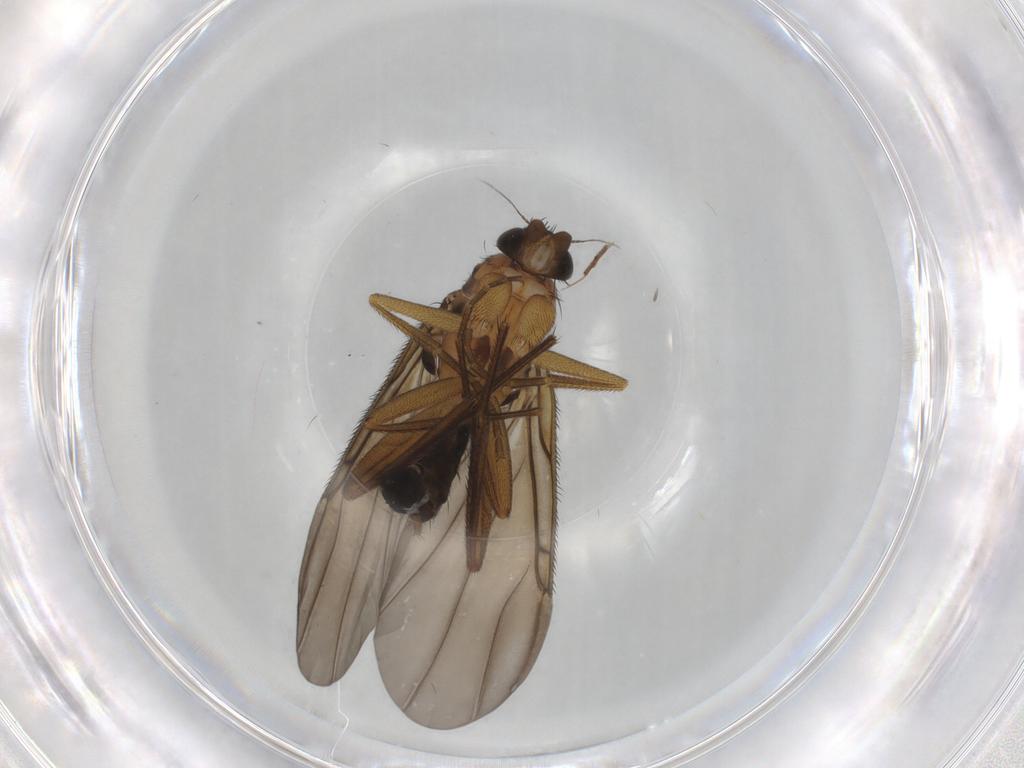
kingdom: Animalia
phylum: Arthropoda
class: Insecta
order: Diptera
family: Phoridae
